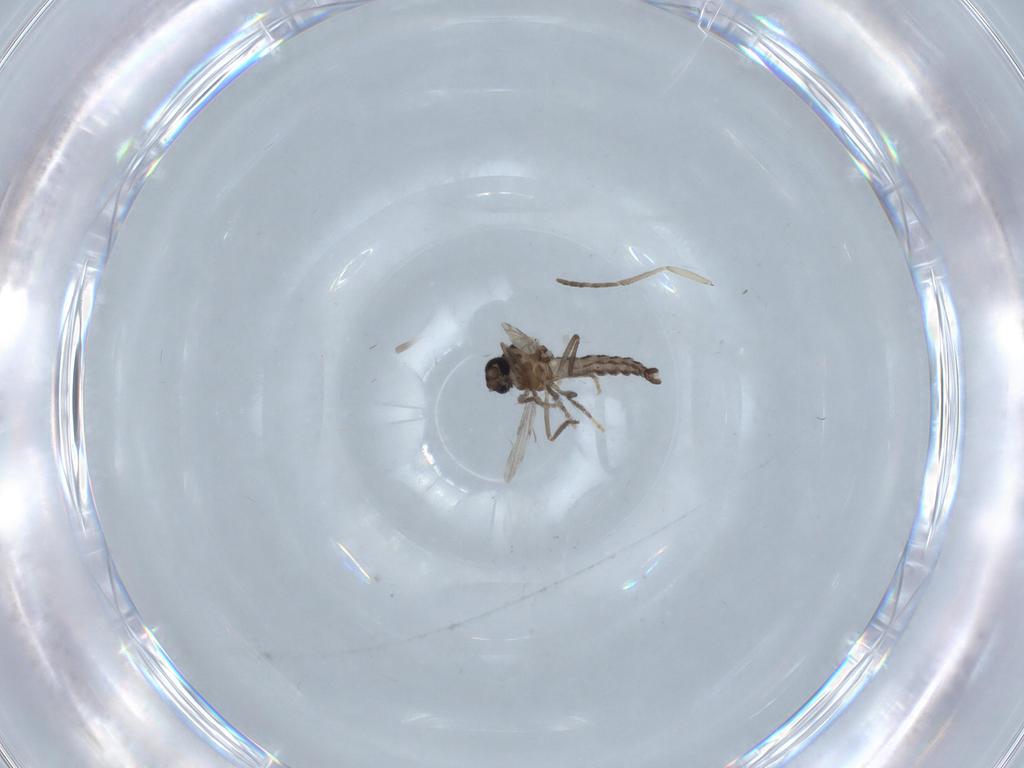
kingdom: Animalia
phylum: Arthropoda
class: Insecta
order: Diptera
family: Ceratopogonidae
